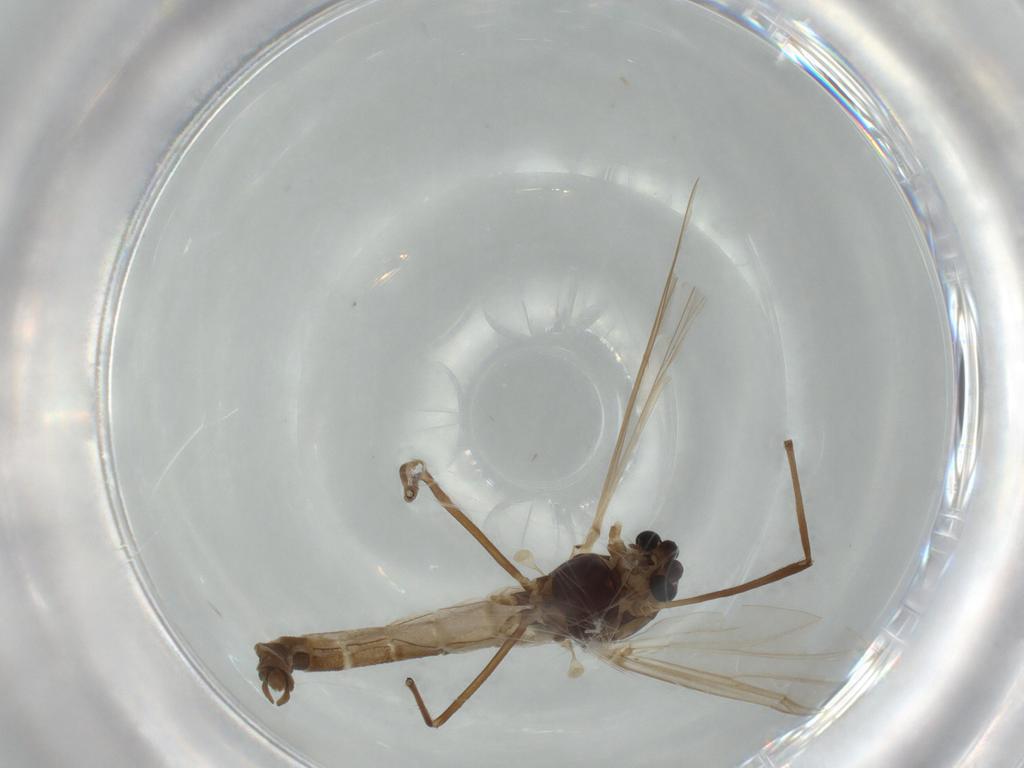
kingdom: Animalia
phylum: Arthropoda
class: Insecta
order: Diptera
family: Chironomidae
